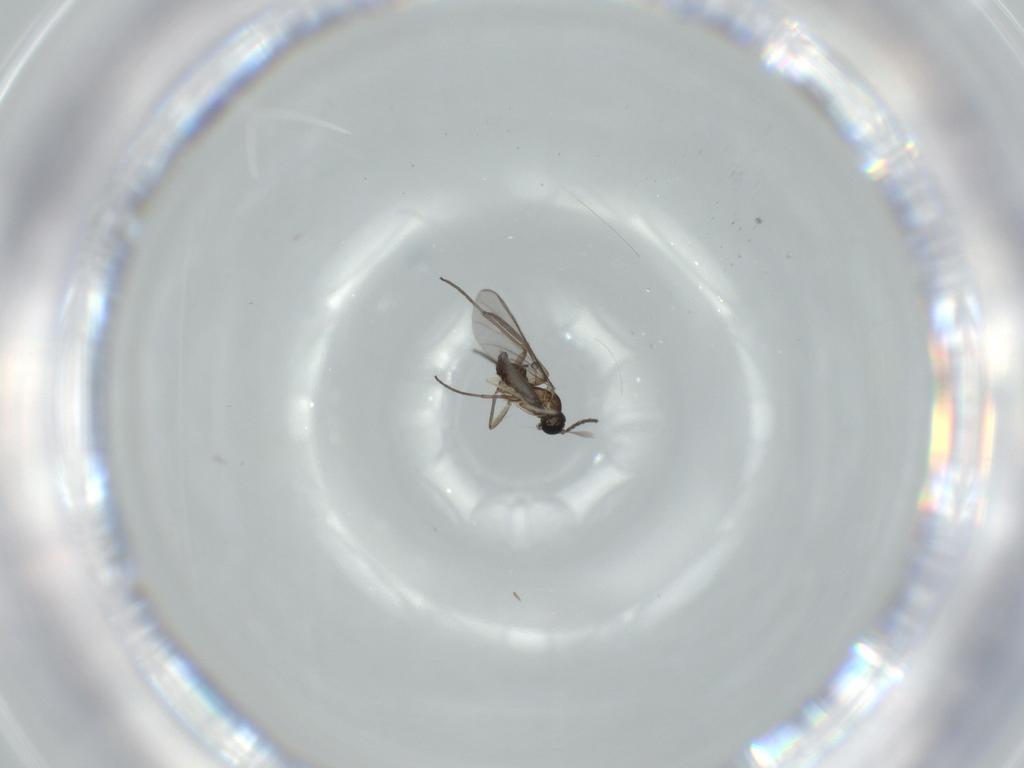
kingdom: Animalia
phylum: Arthropoda
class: Insecta
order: Diptera
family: Sciaridae
